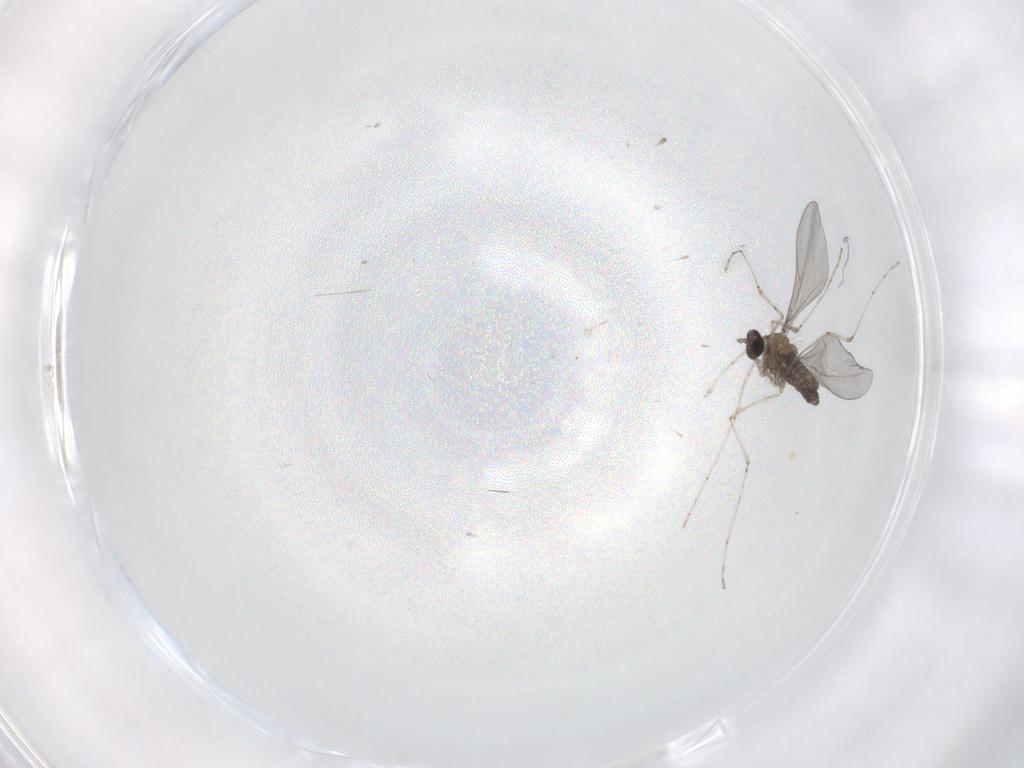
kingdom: Animalia
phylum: Arthropoda
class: Insecta
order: Diptera
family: Cecidomyiidae
